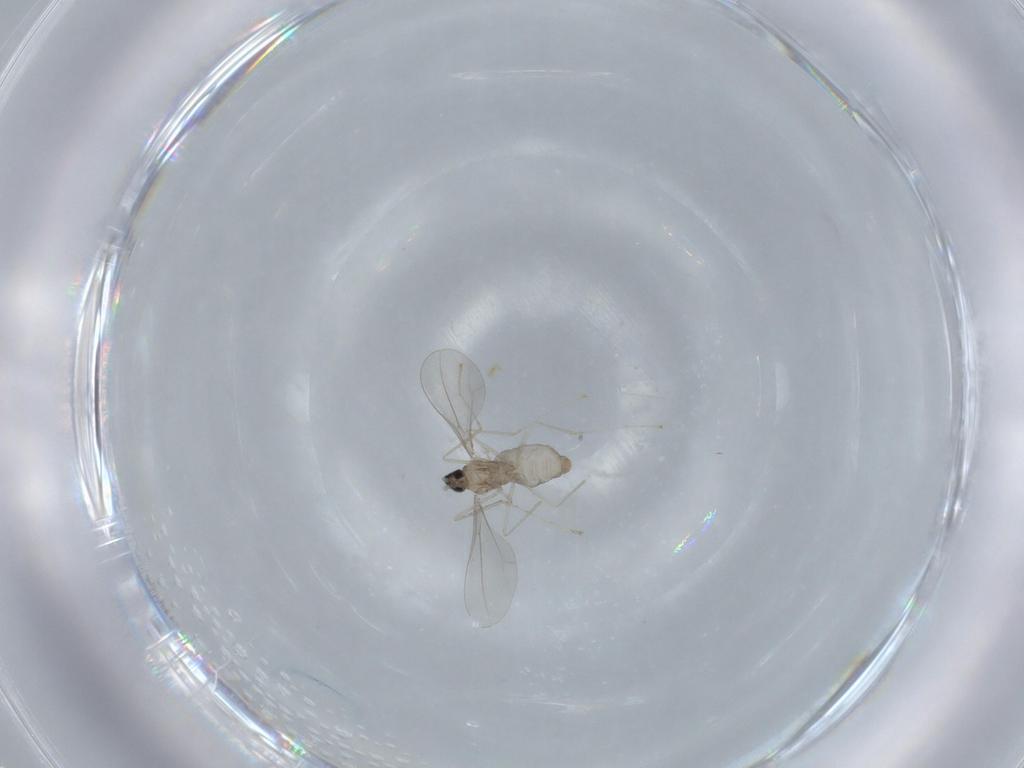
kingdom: Animalia
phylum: Arthropoda
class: Insecta
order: Diptera
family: Cecidomyiidae
